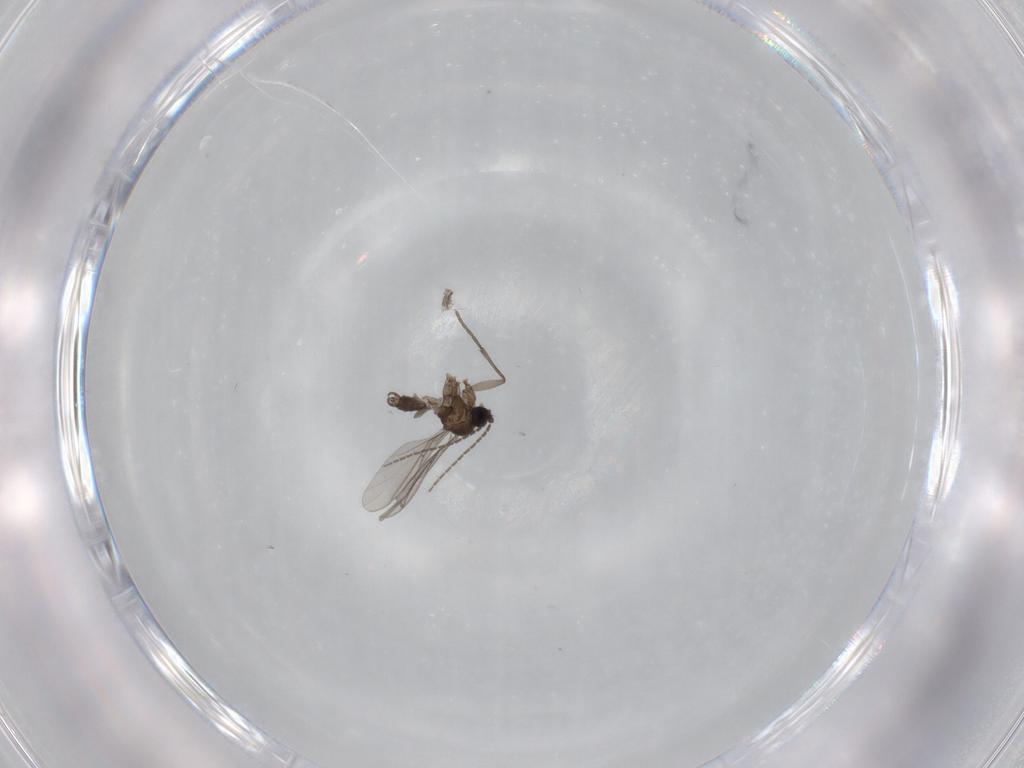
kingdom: Animalia
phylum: Arthropoda
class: Insecta
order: Diptera
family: Sciaridae
